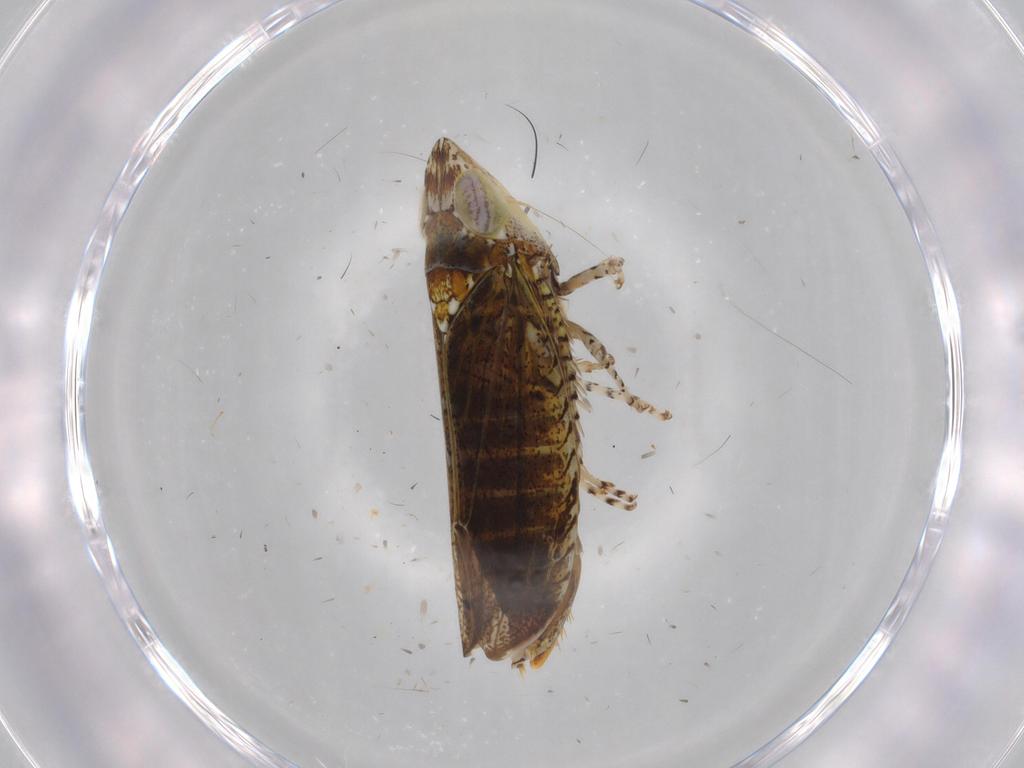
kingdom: Animalia
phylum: Arthropoda
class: Insecta
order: Psocodea
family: Ptiloneuridae
